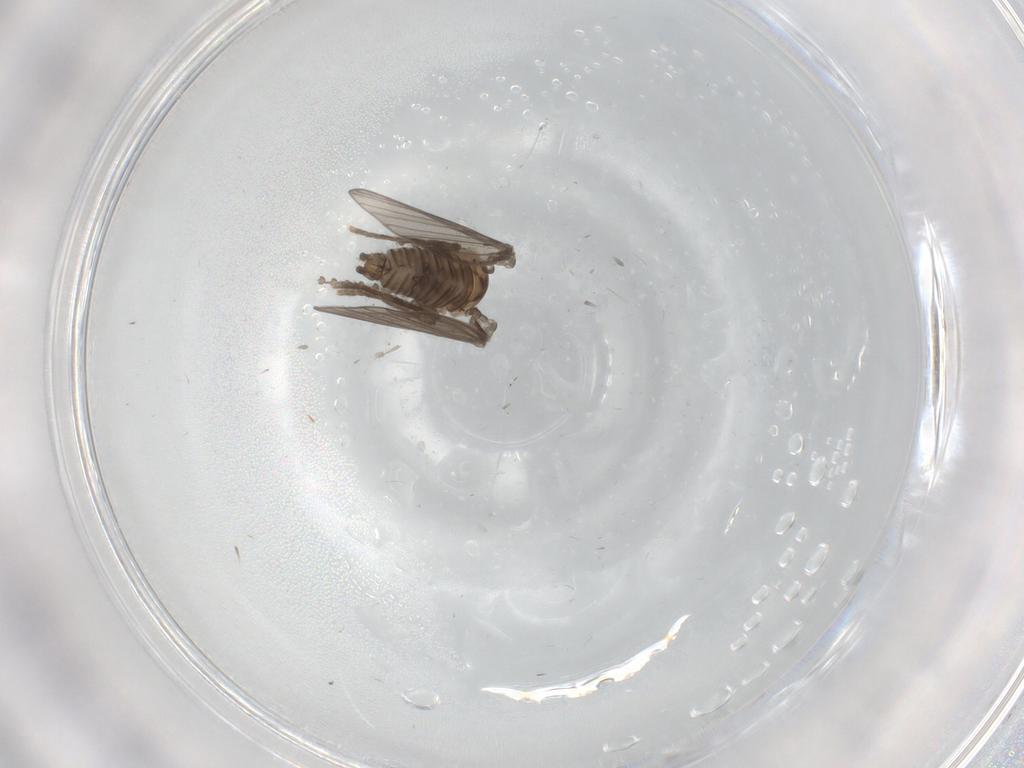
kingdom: Animalia
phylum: Arthropoda
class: Insecta
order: Diptera
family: Psychodidae
